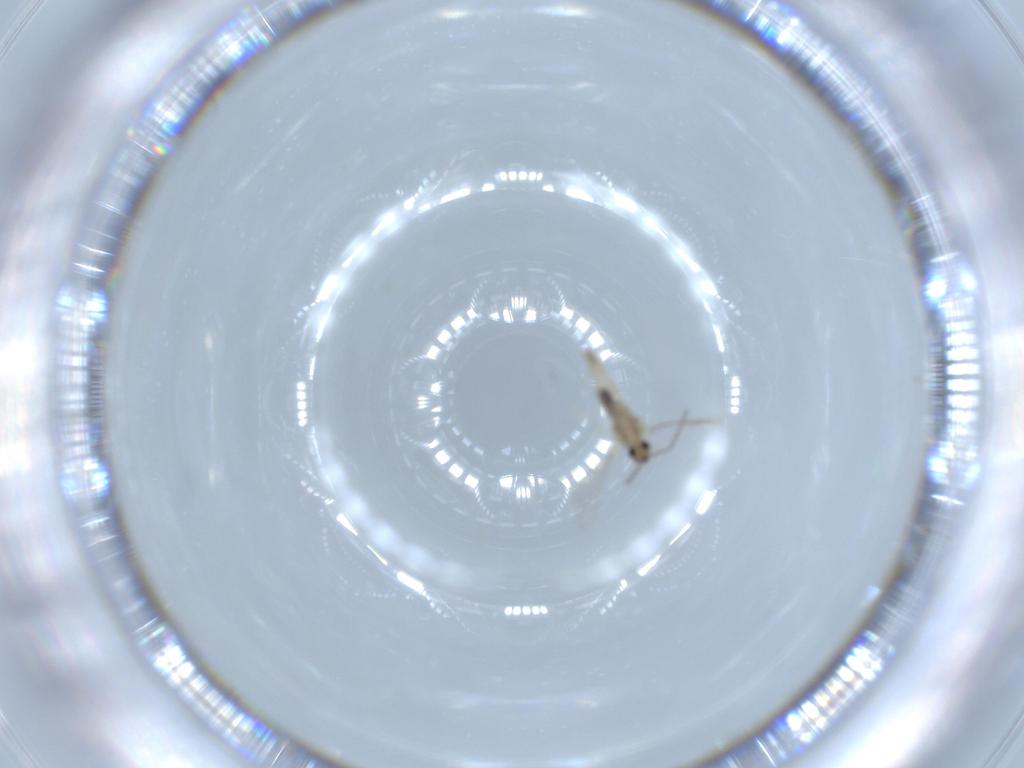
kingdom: Animalia
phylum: Arthropoda
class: Insecta
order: Diptera
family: Cecidomyiidae
